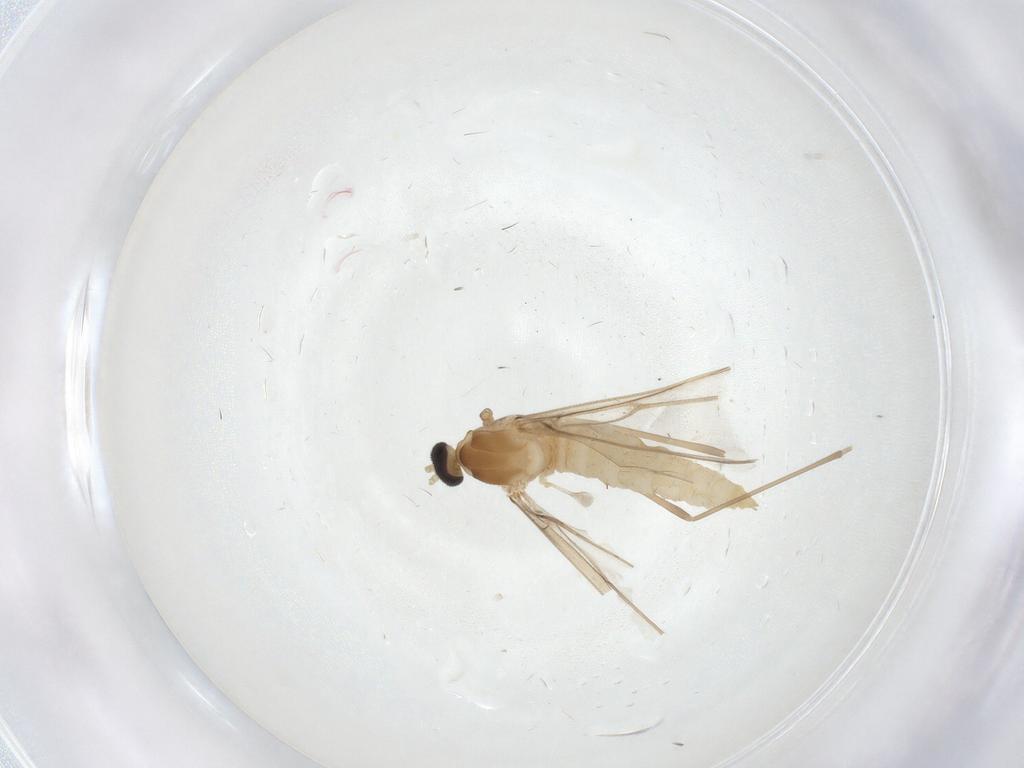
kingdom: Animalia
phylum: Arthropoda
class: Insecta
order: Diptera
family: Cecidomyiidae
